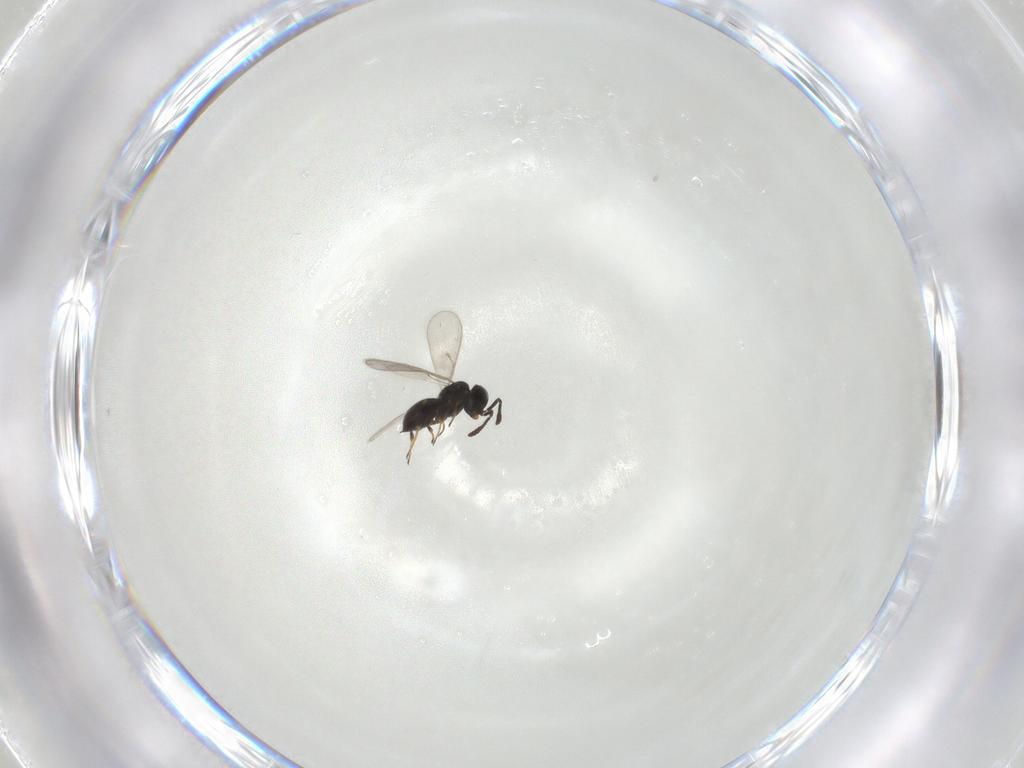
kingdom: Animalia
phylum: Arthropoda
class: Insecta
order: Hymenoptera
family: Scelionidae
